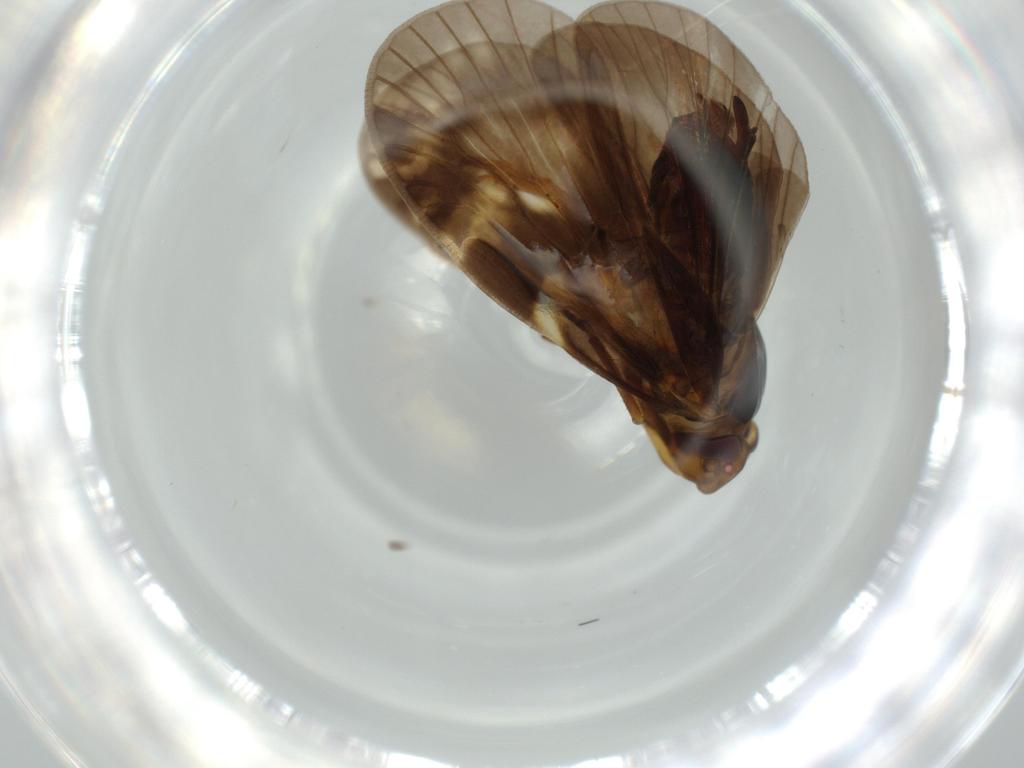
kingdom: Animalia
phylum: Arthropoda
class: Insecta
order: Hemiptera
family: Cixiidae
